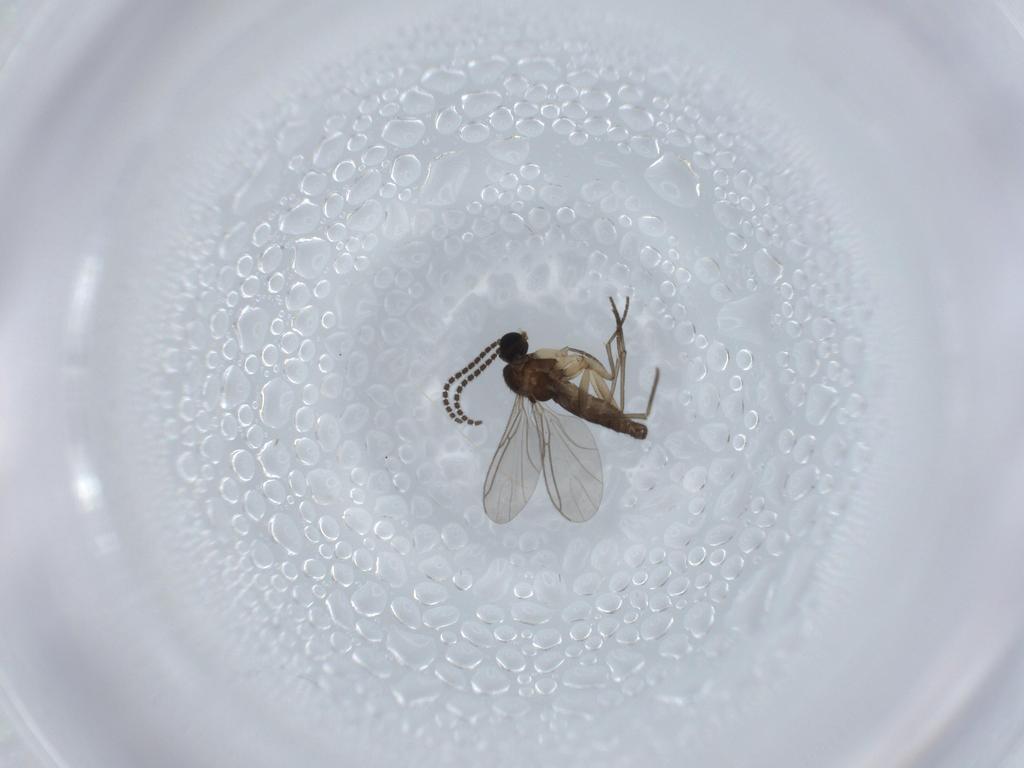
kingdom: Animalia
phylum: Arthropoda
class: Insecta
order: Diptera
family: Sciaridae
